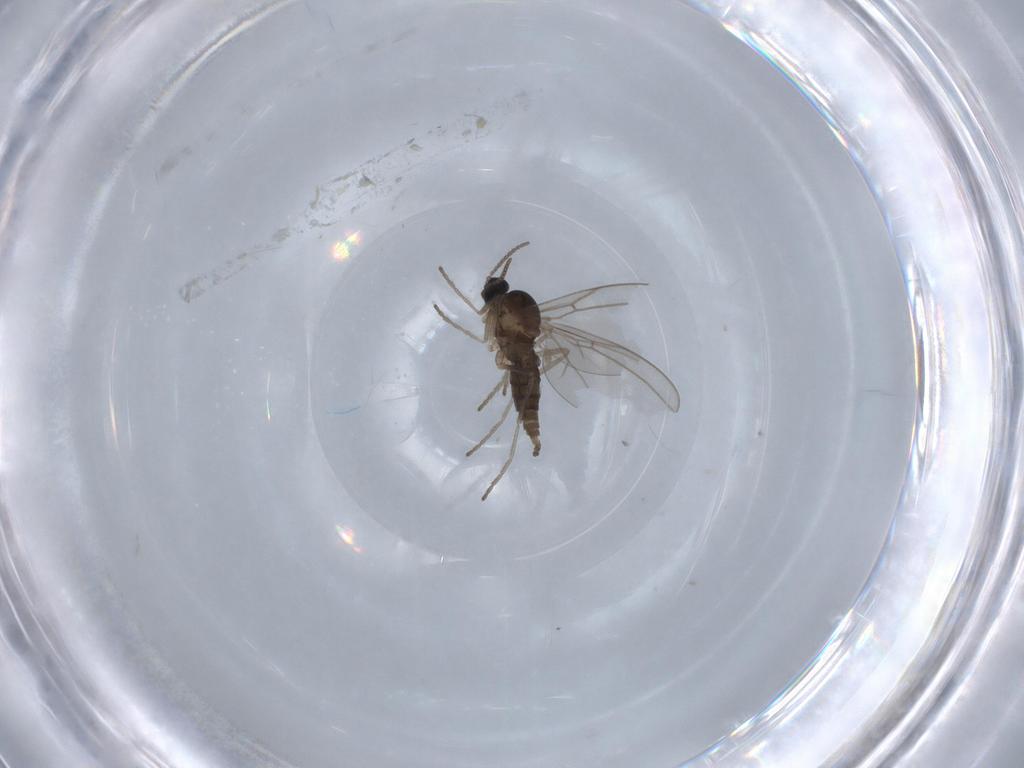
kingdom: Animalia
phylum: Arthropoda
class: Insecta
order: Diptera
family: Cecidomyiidae
